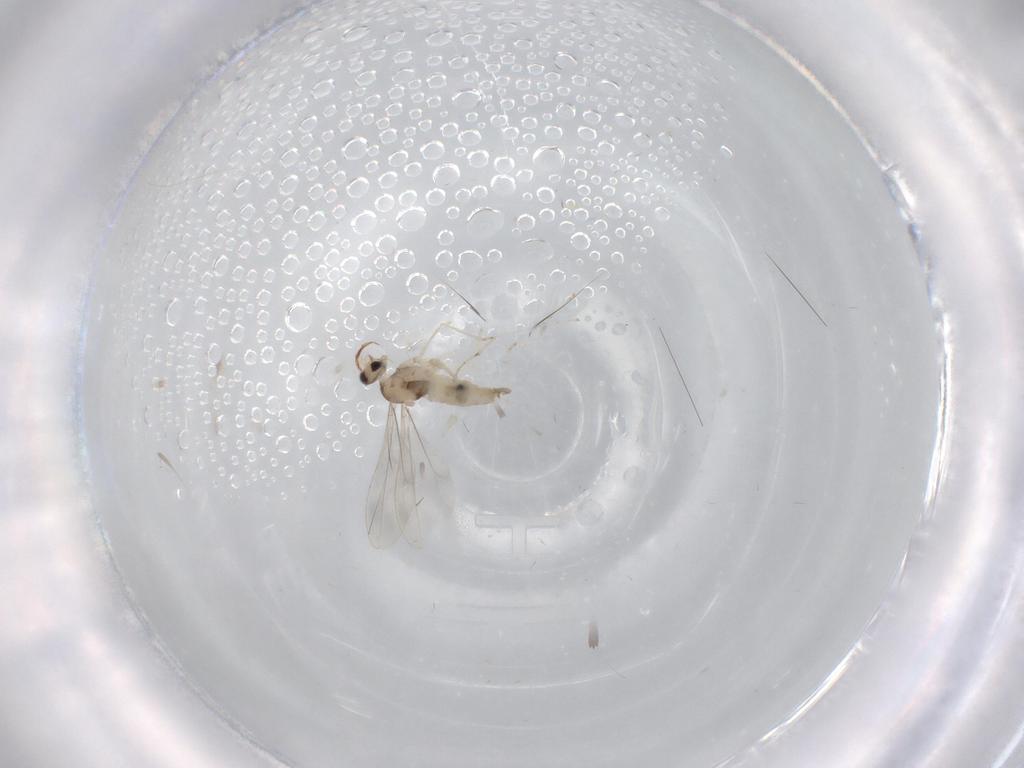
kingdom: Animalia
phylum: Arthropoda
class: Insecta
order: Diptera
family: Cecidomyiidae
